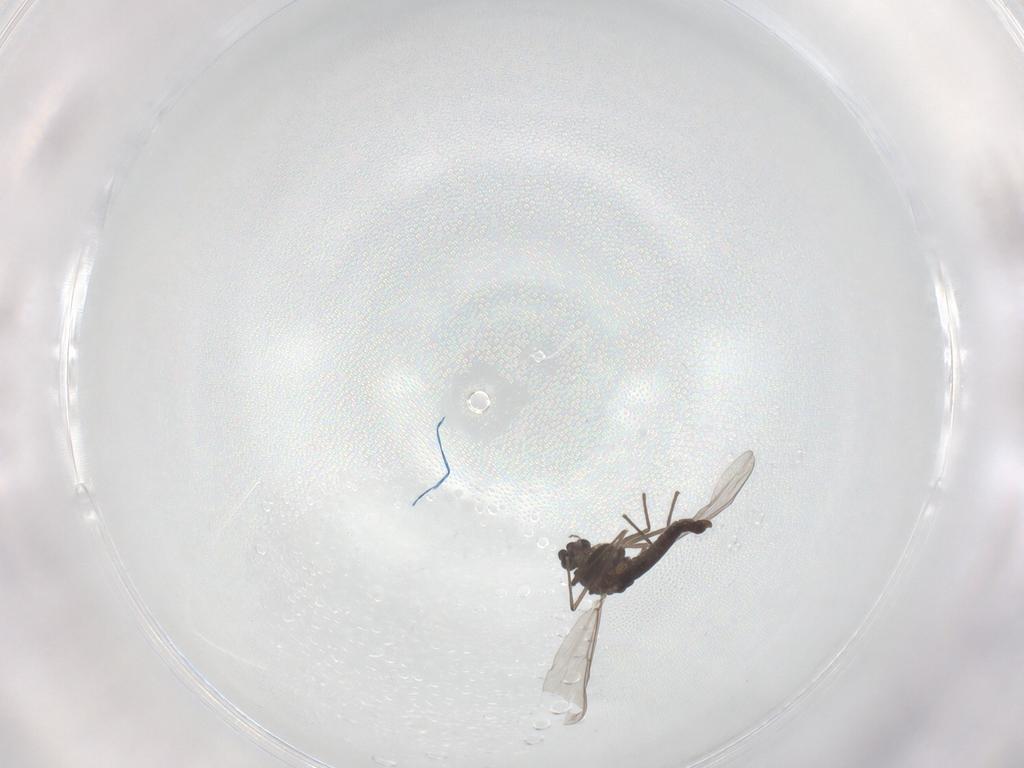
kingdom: Animalia
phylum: Arthropoda
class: Insecta
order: Diptera
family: Chironomidae
